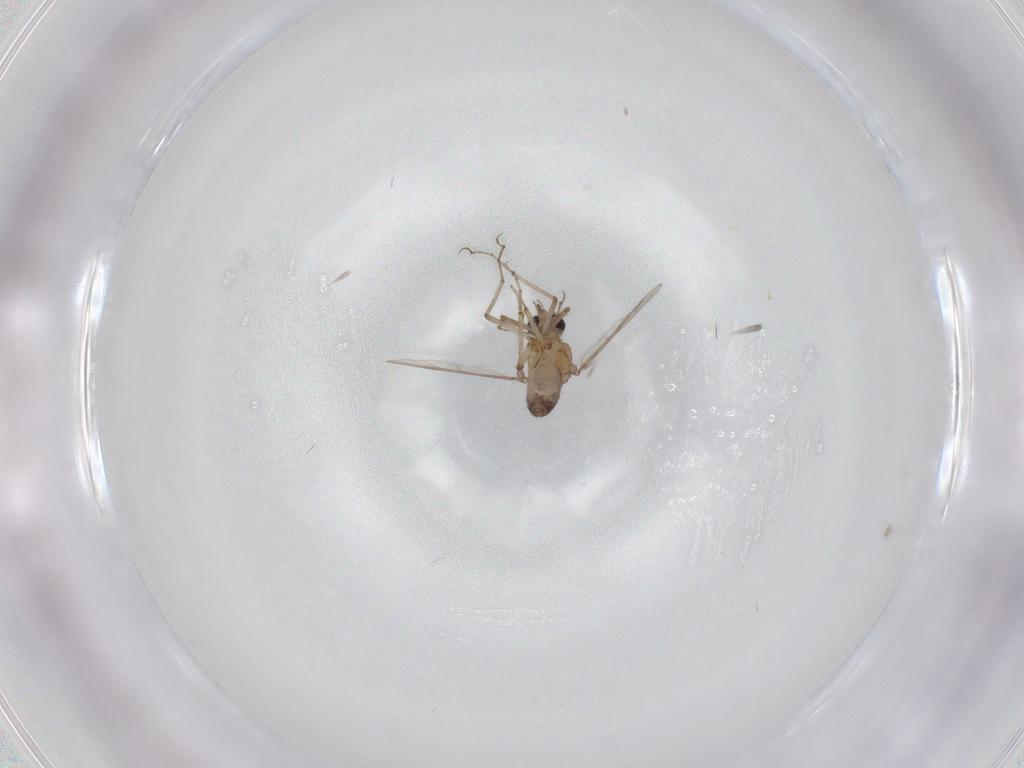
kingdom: Animalia
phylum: Arthropoda
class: Insecta
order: Diptera
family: Ceratopogonidae
